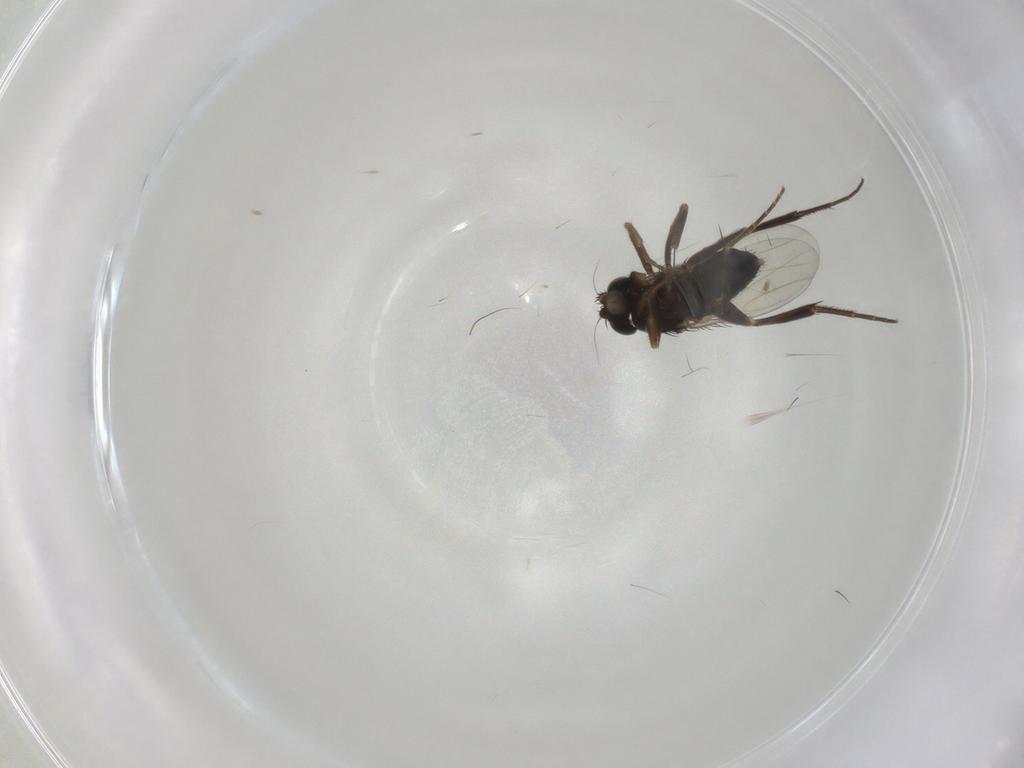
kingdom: Animalia
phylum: Arthropoda
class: Insecta
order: Diptera
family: Phoridae
